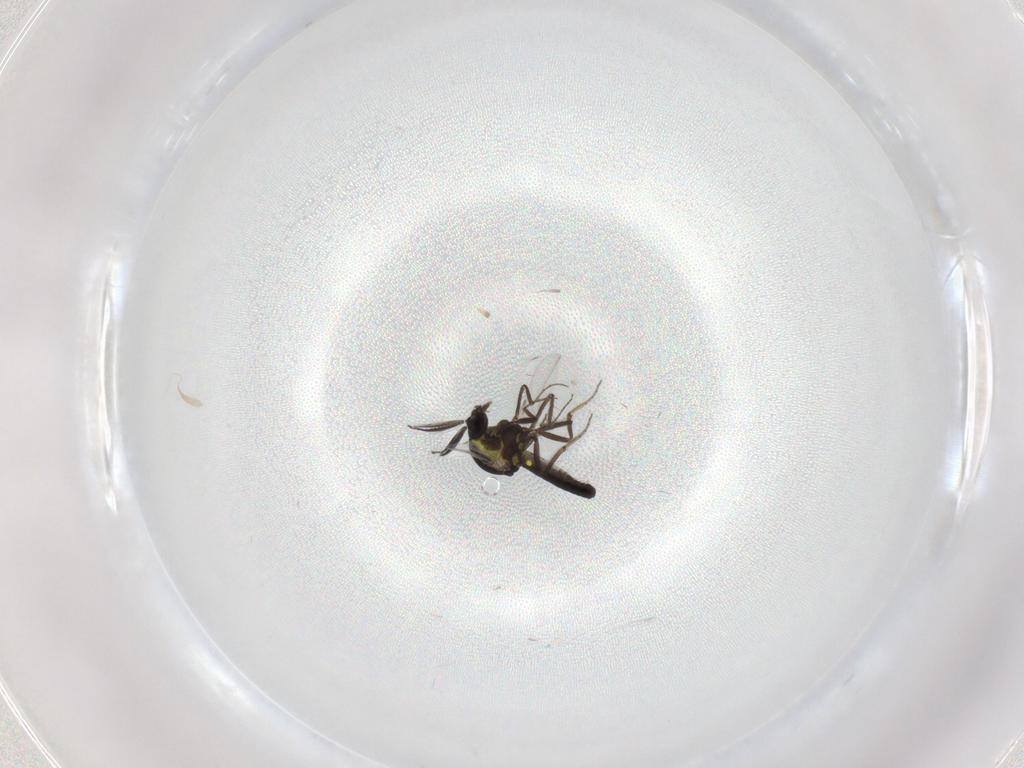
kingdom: Animalia
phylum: Arthropoda
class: Insecta
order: Diptera
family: Ceratopogonidae
